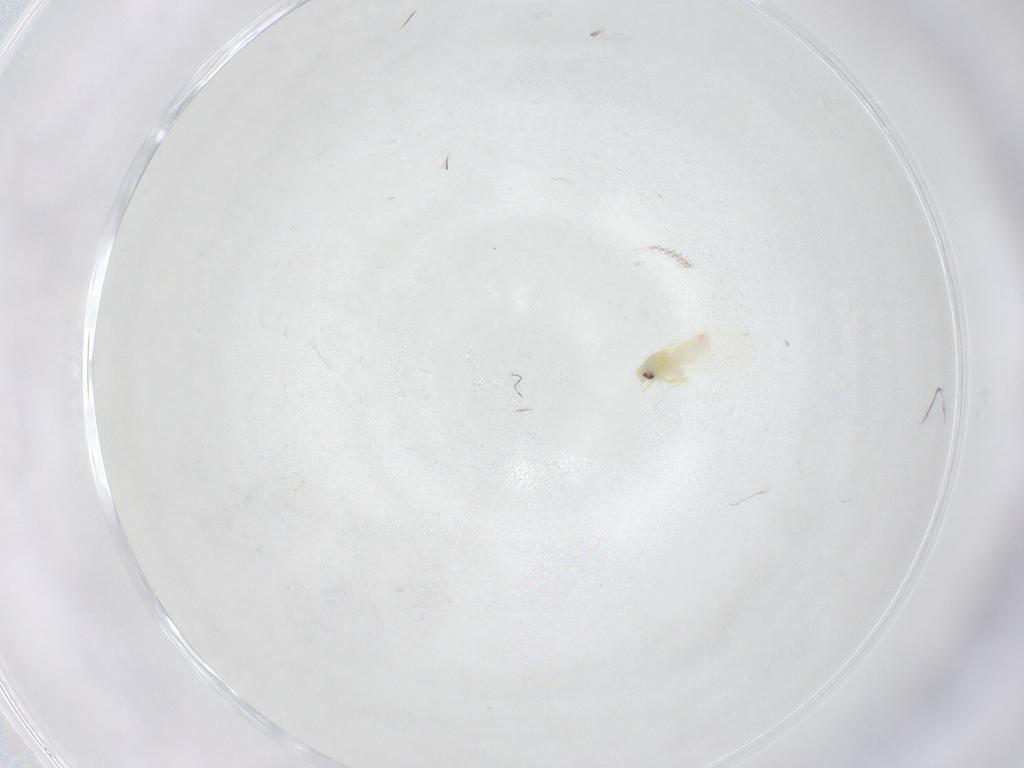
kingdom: Animalia
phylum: Arthropoda
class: Insecta
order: Hemiptera
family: Aleyrodidae
